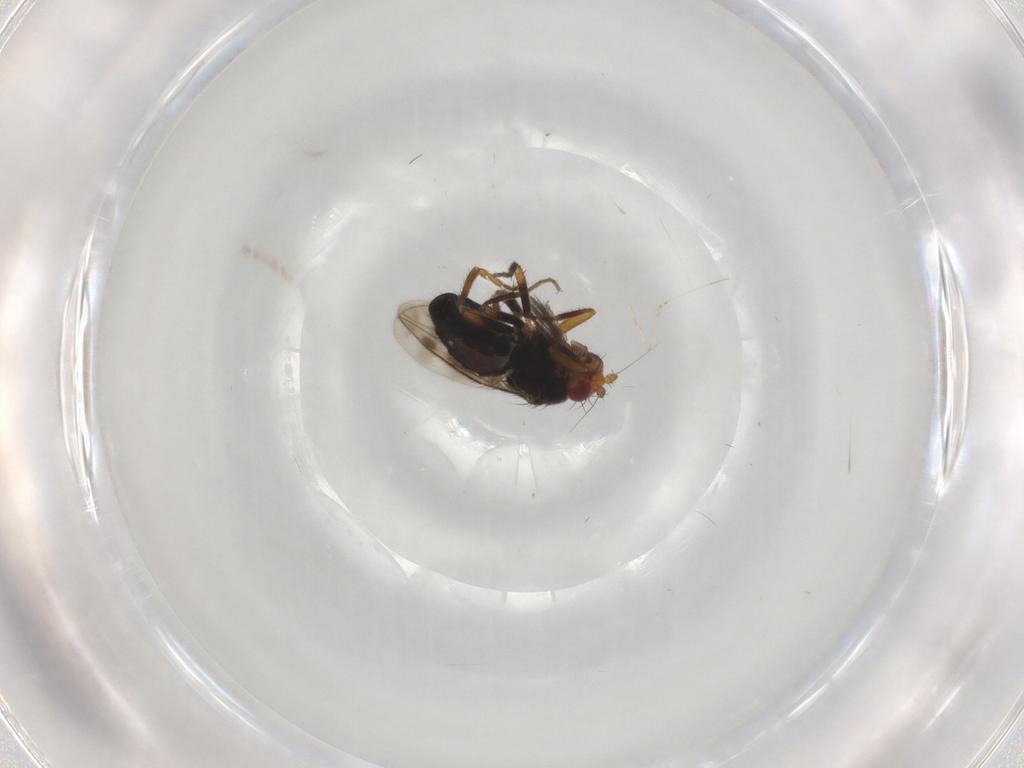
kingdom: Animalia
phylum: Arthropoda
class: Insecta
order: Diptera
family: Sphaeroceridae
